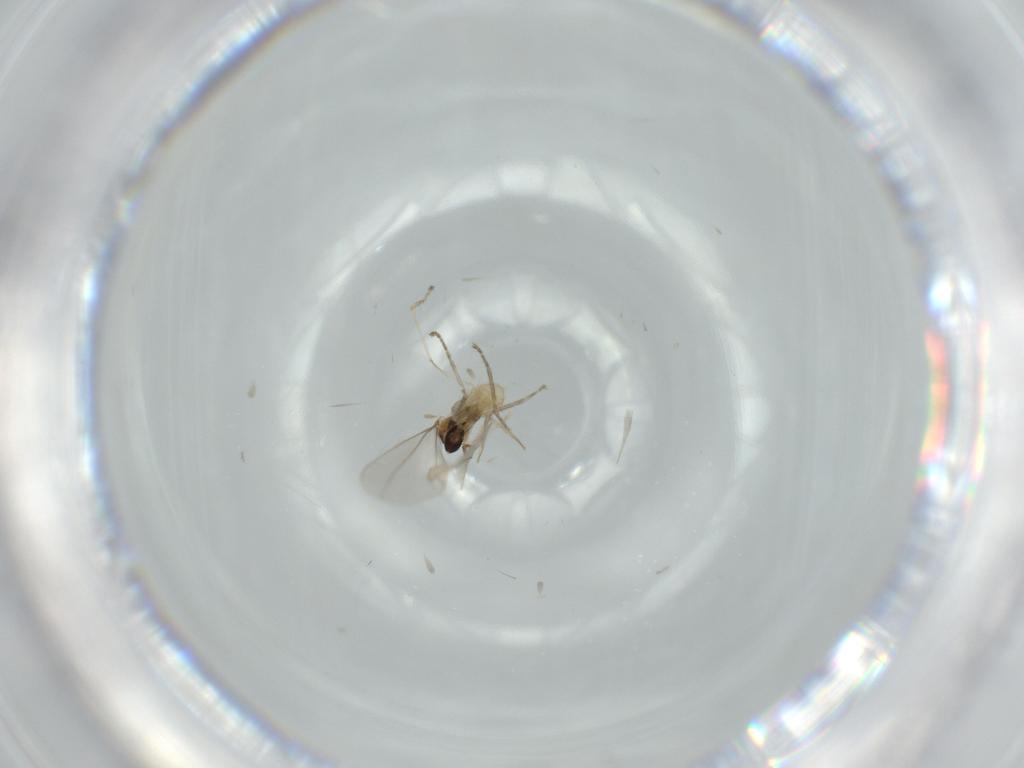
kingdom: Animalia
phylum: Arthropoda
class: Insecta
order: Diptera
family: Cecidomyiidae
